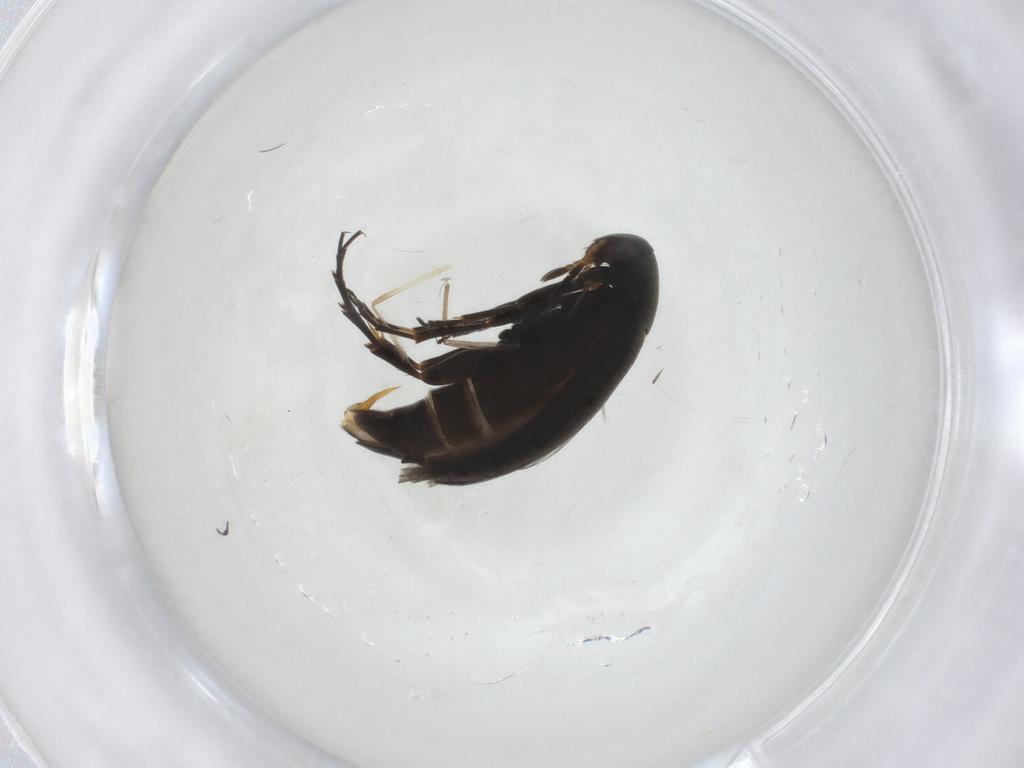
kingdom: Animalia
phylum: Arthropoda
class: Insecta
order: Coleoptera
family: Scraptiidae
